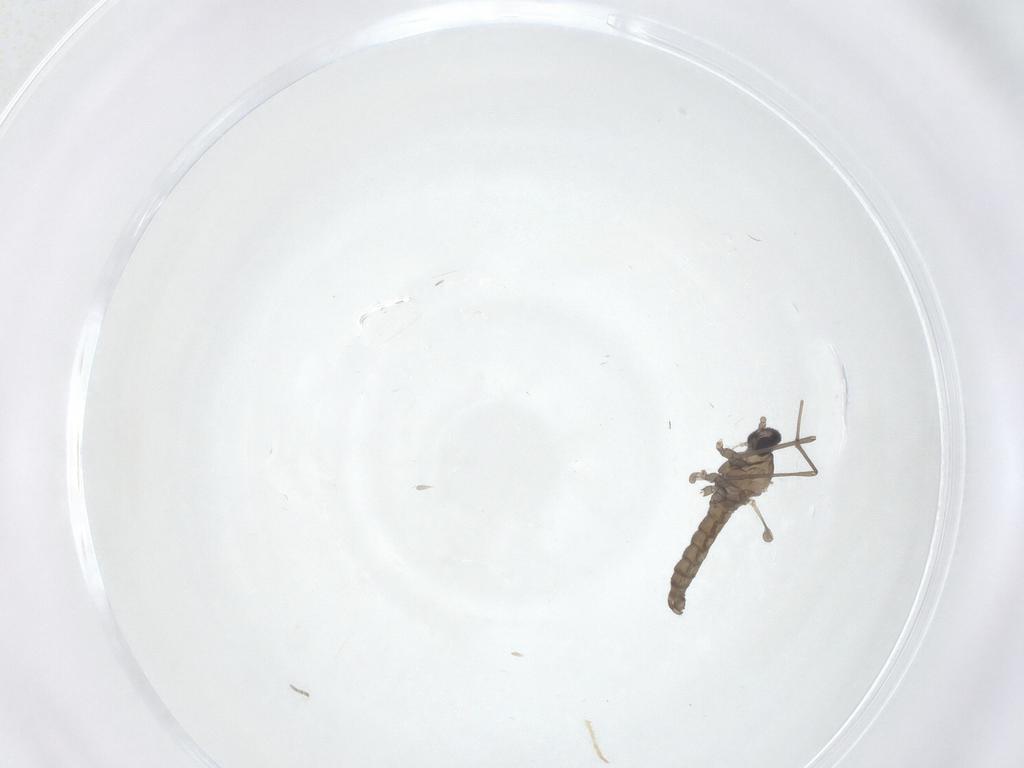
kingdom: Animalia
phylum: Arthropoda
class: Insecta
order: Diptera
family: Chironomidae
